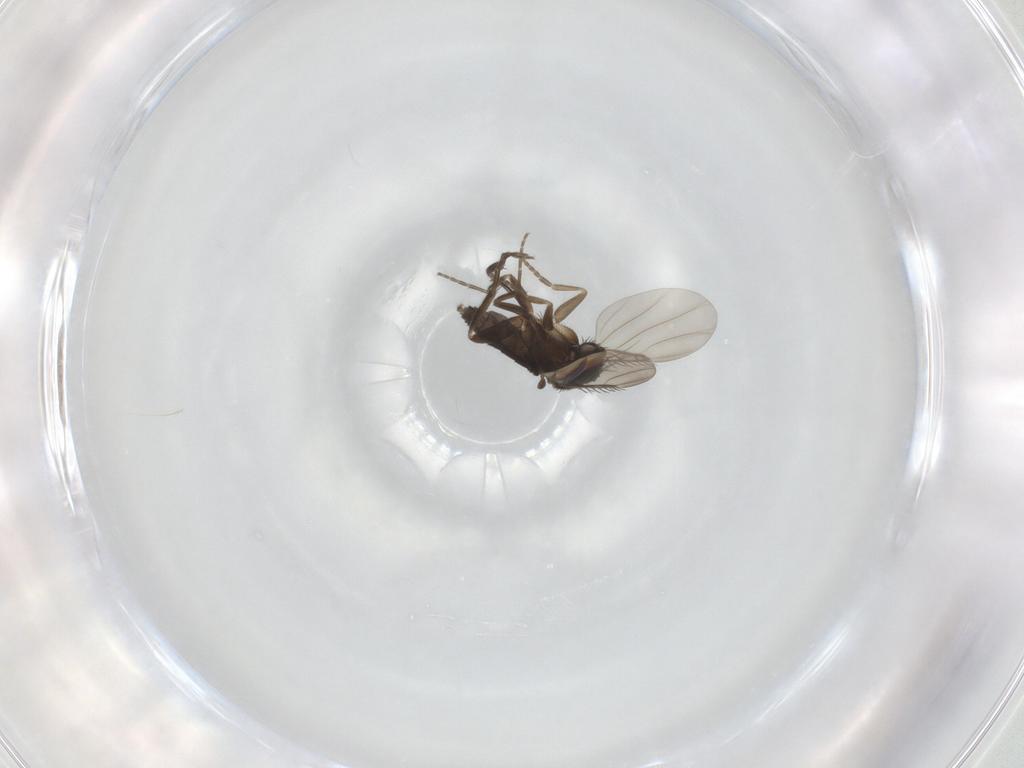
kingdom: Animalia
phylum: Arthropoda
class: Insecta
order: Diptera
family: Phoridae
